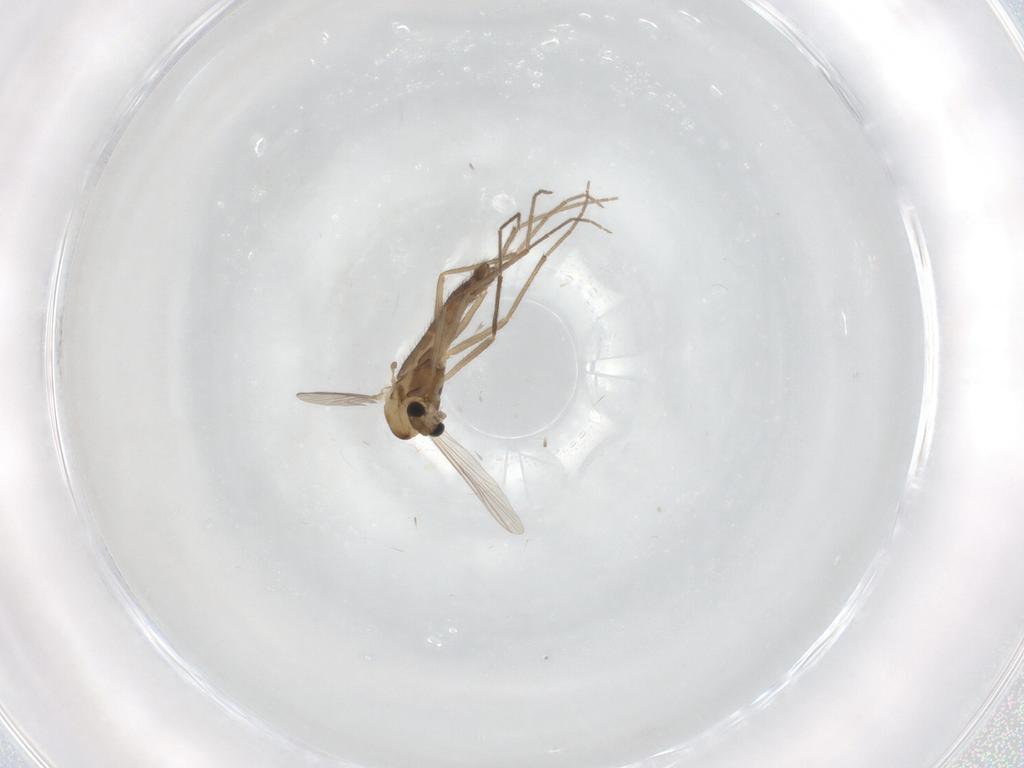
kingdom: Animalia
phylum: Arthropoda
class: Insecta
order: Diptera
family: Chironomidae
